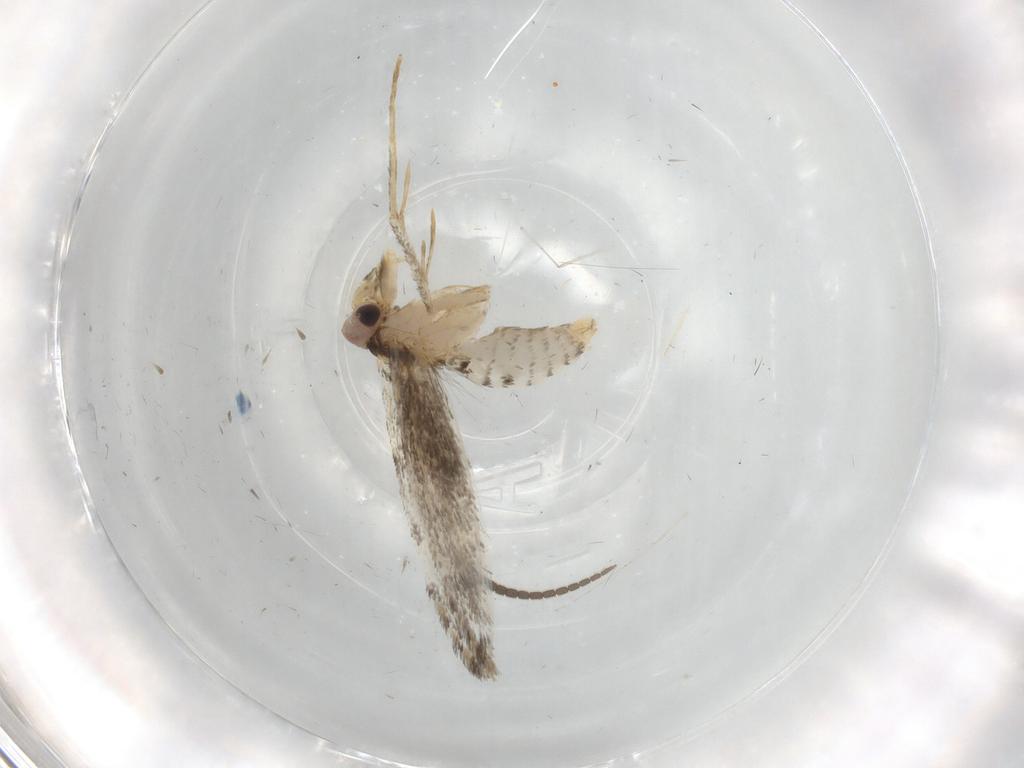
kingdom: Animalia
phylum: Arthropoda
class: Insecta
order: Lepidoptera
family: Tineidae
